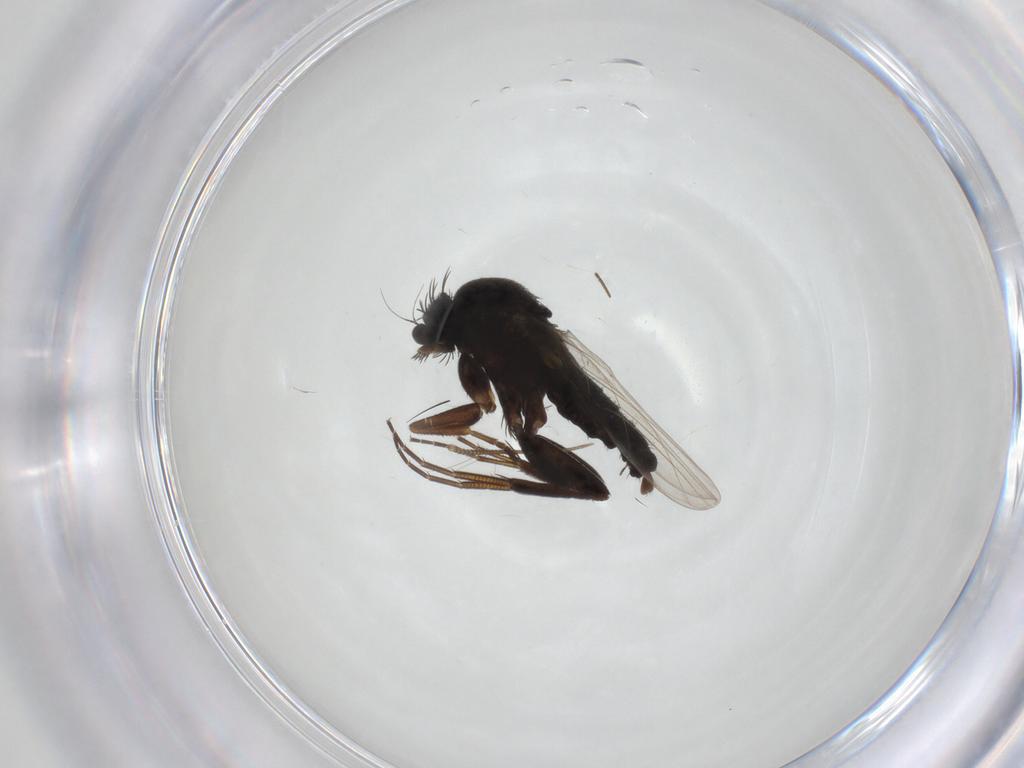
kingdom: Animalia
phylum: Arthropoda
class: Insecta
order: Diptera
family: Phoridae
